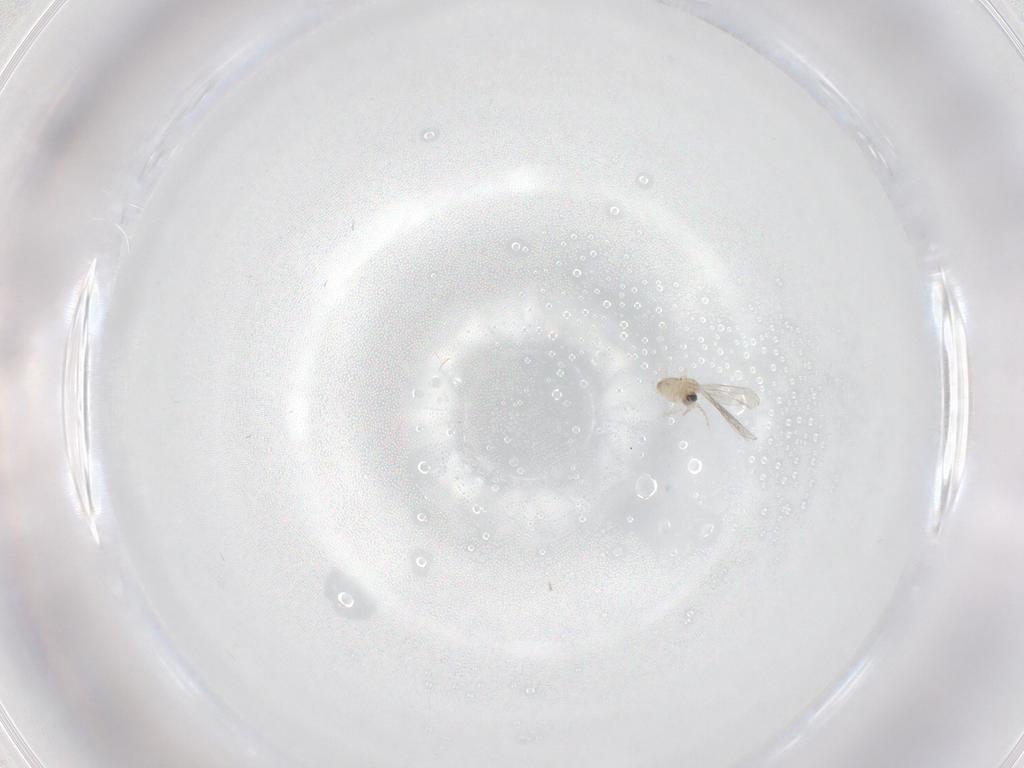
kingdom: Animalia
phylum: Arthropoda
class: Insecta
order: Diptera
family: Cecidomyiidae
